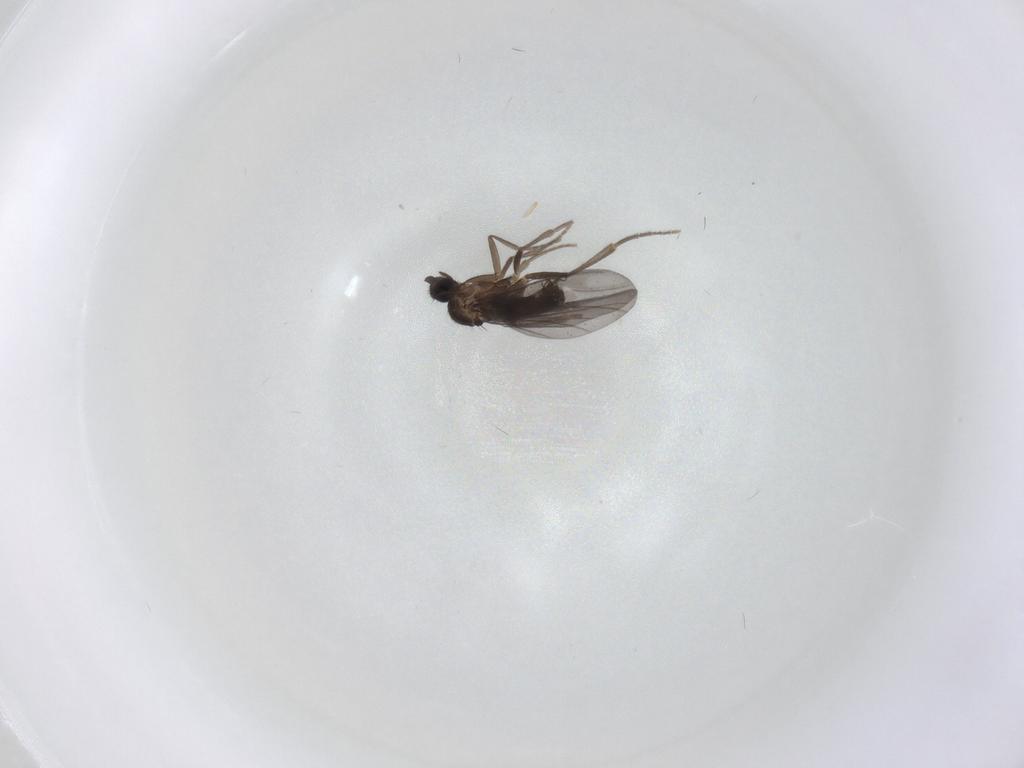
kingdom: Animalia
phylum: Arthropoda
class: Insecta
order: Diptera
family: Phoridae
